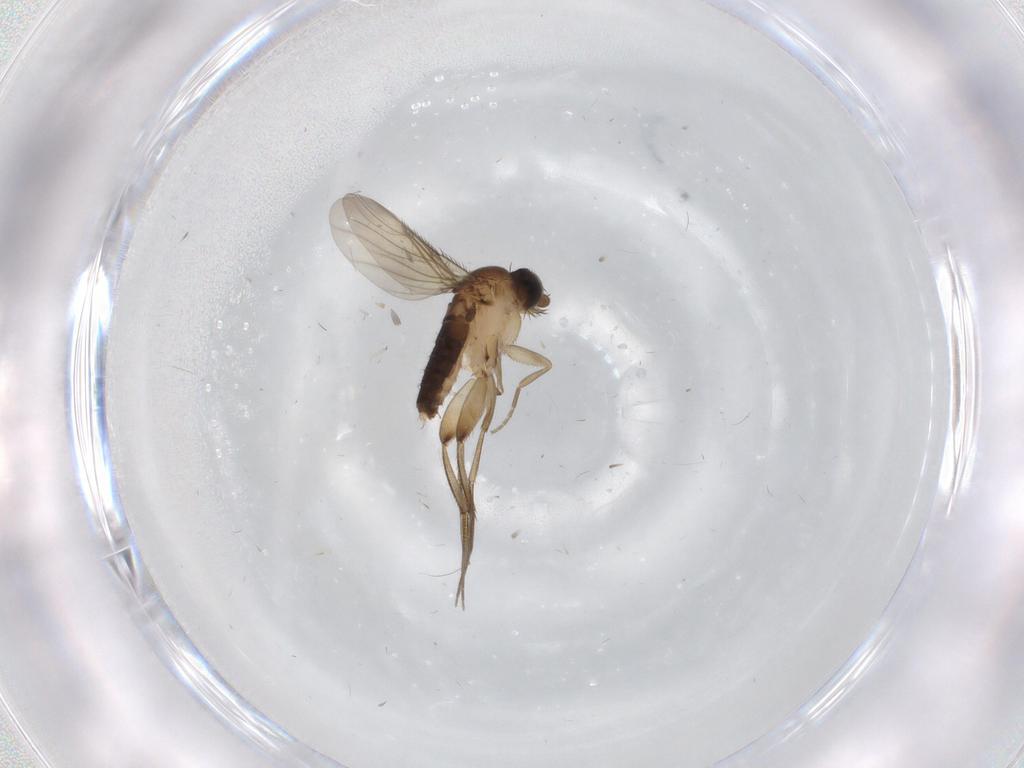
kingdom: Animalia
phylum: Arthropoda
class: Insecta
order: Diptera
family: Phoridae
